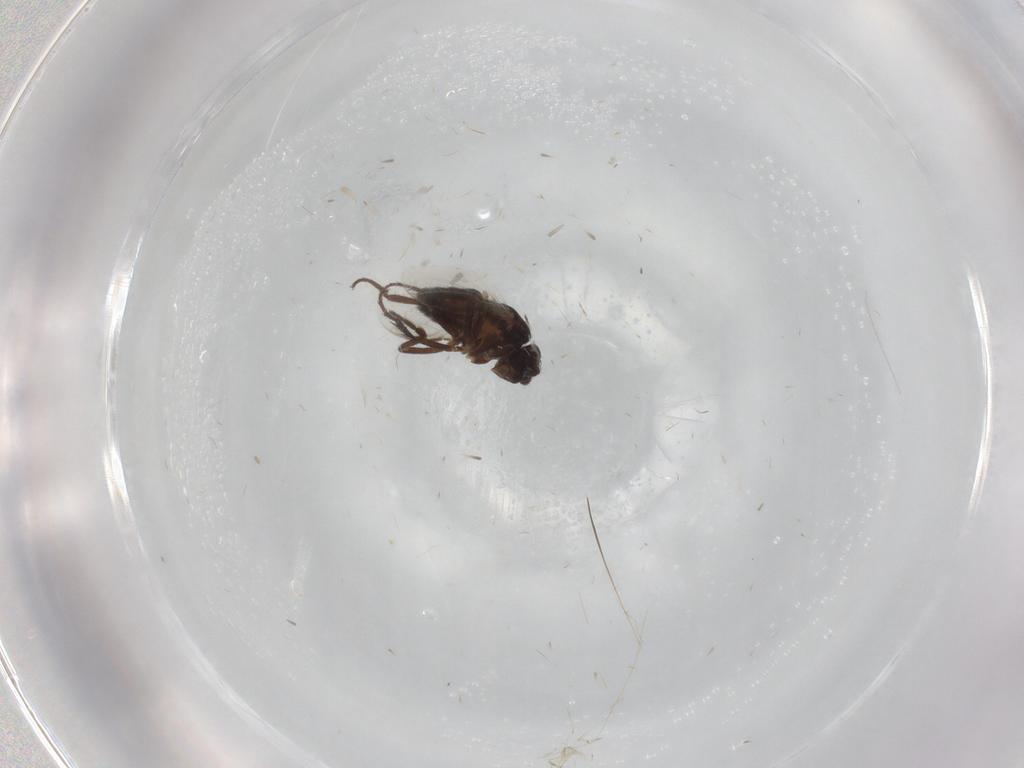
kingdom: Animalia
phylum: Arthropoda
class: Insecta
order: Diptera
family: Sphaeroceridae
